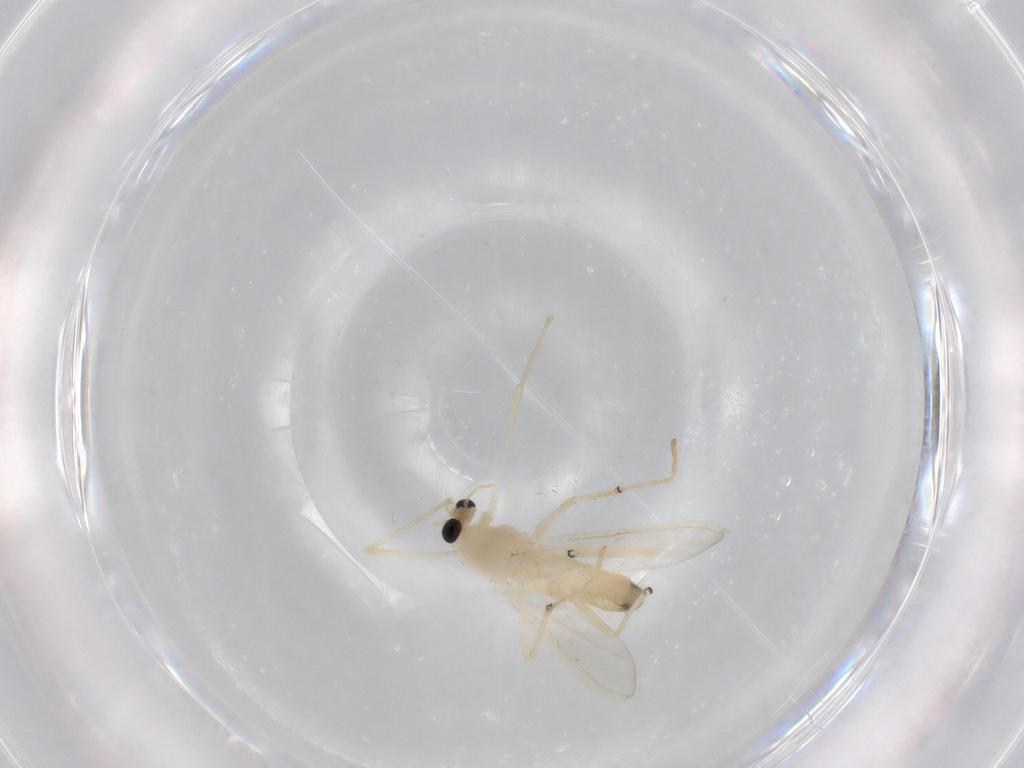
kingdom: Animalia
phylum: Arthropoda
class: Insecta
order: Diptera
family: Chironomidae
